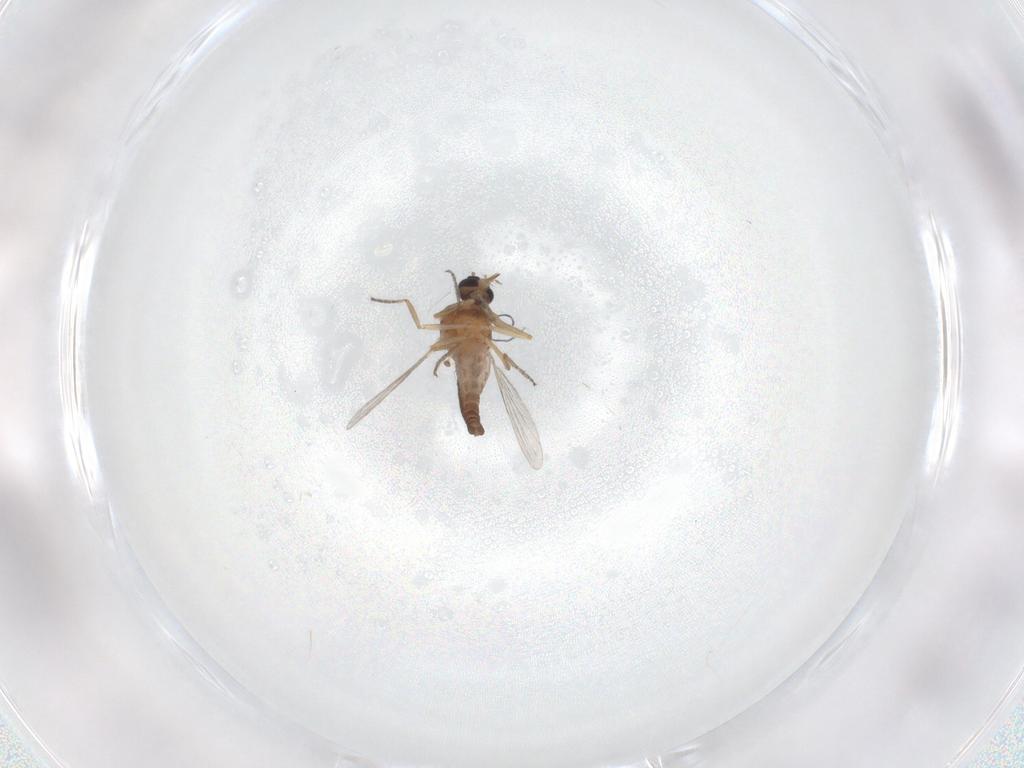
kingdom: Animalia
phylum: Arthropoda
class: Insecta
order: Diptera
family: Ceratopogonidae
